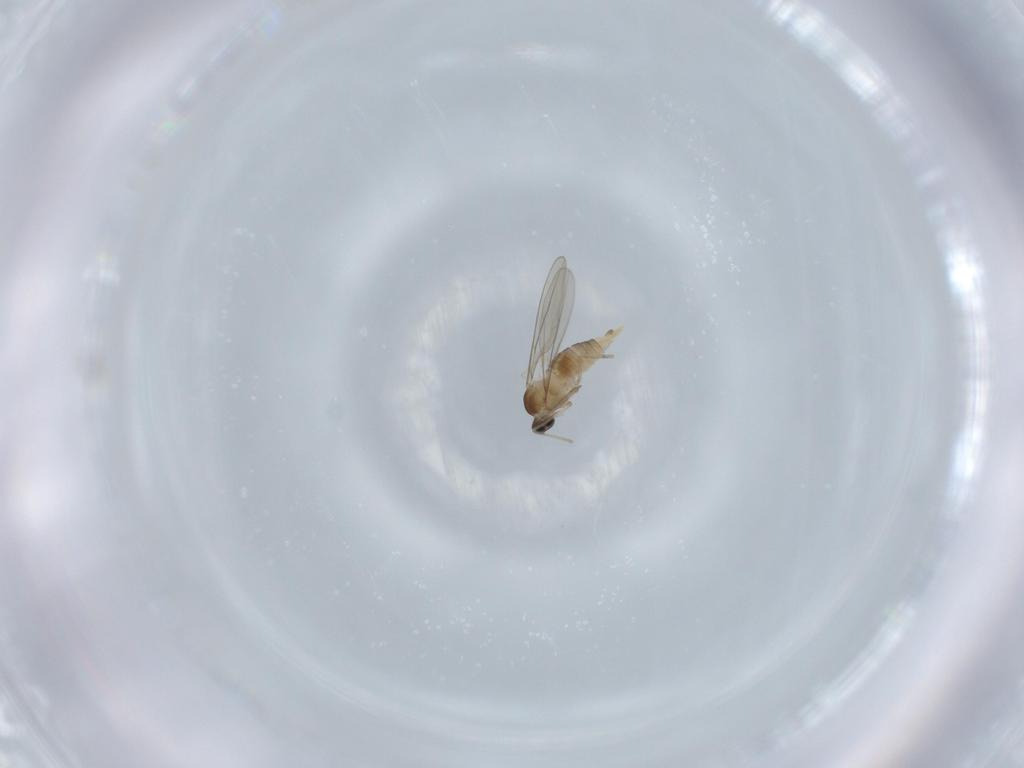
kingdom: Animalia
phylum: Arthropoda
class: Insecta
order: Diptera
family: Cecidomyiidae
